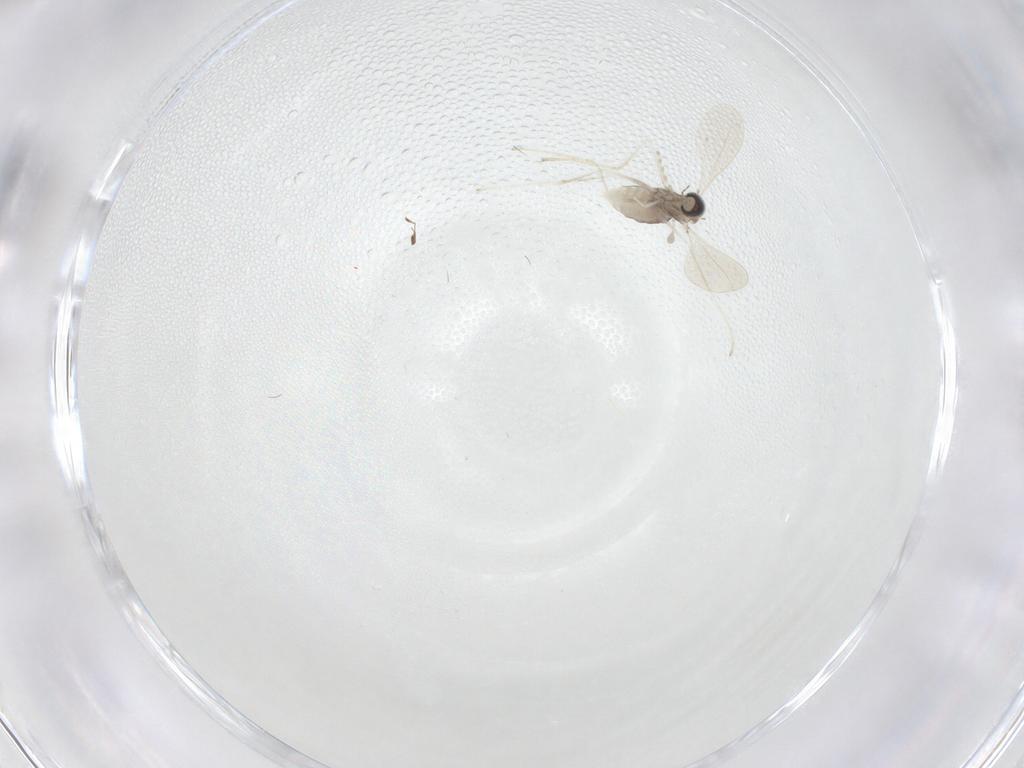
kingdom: Animalia
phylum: Arthropoda
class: Insecta
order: Diptera
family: Cecidomyiidae
